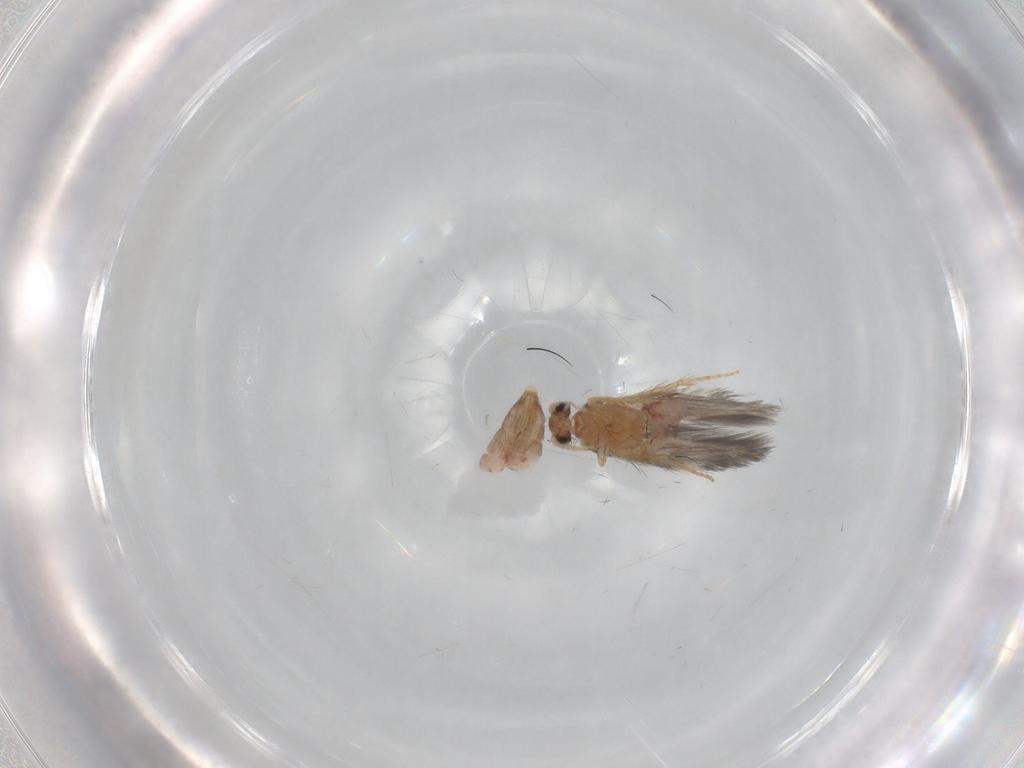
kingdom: Animalia
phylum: Arthropoda
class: Insecta
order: Trichoptera
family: Hydroptilidae
